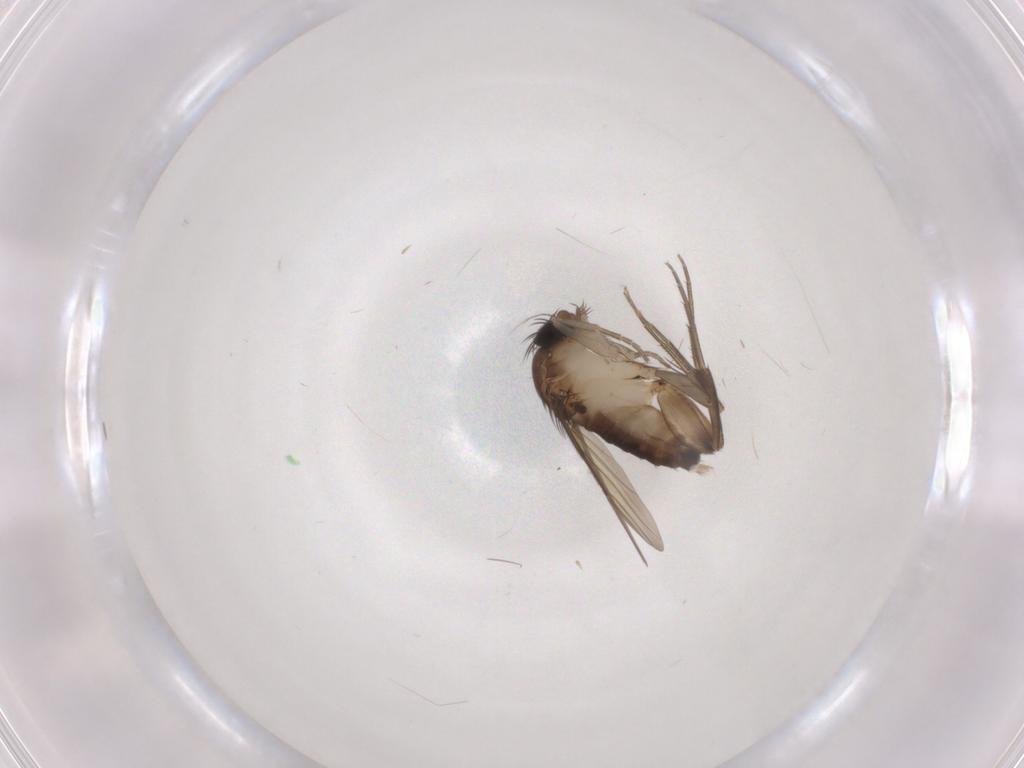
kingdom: Animalia
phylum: Arthropoda
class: Insecta
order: Diptera
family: Phoridae
